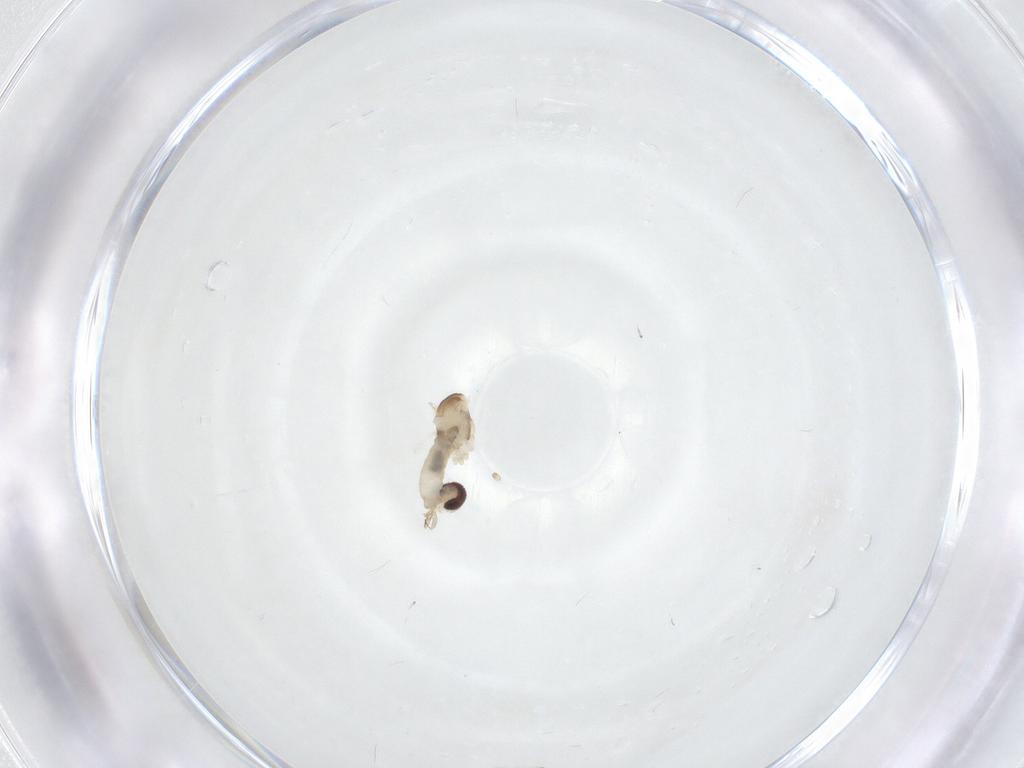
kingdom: Animalia
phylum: Arthropoda
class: Insecta
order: Diptera
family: Cecidomyiidae
